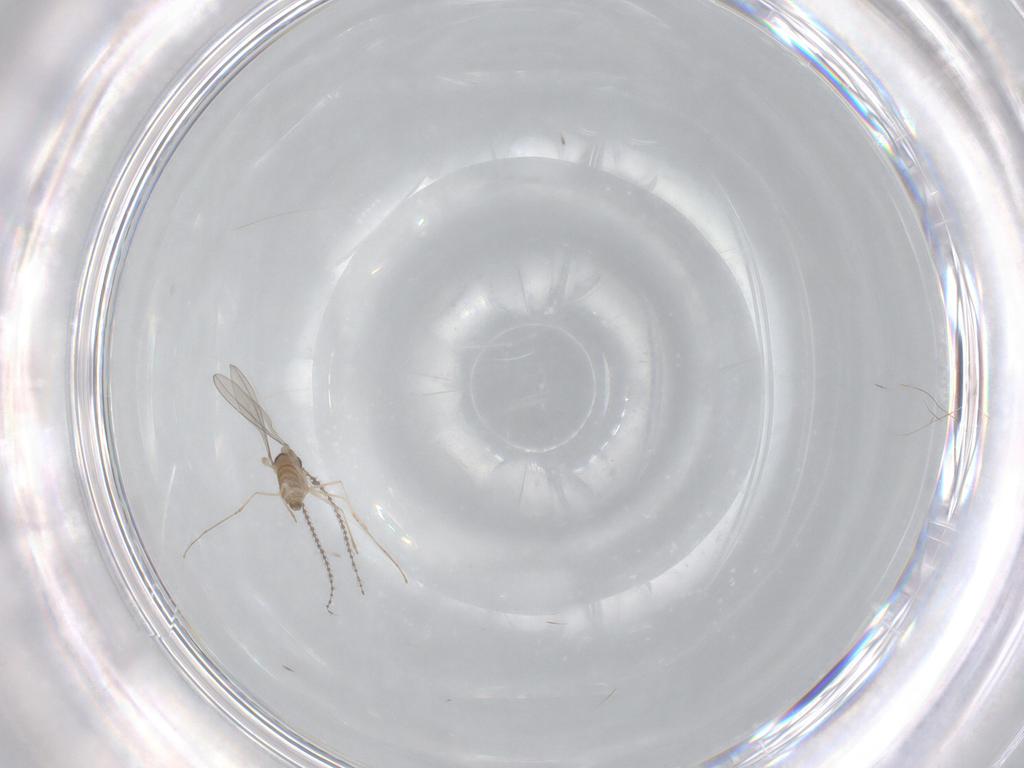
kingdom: Animalia
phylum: Arthropoda
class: Insecta
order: Diptera
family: Cecidomyiidae
